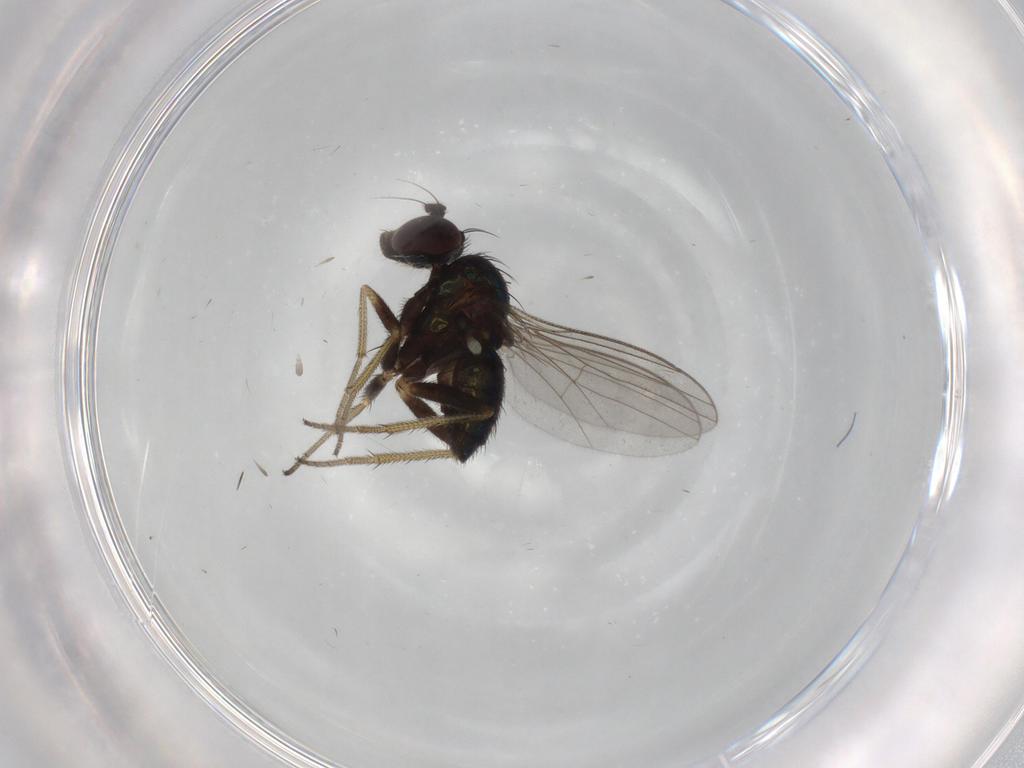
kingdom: Animalia
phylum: Arthropoda
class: Insecta
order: Diptera
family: Dolichopodidae
